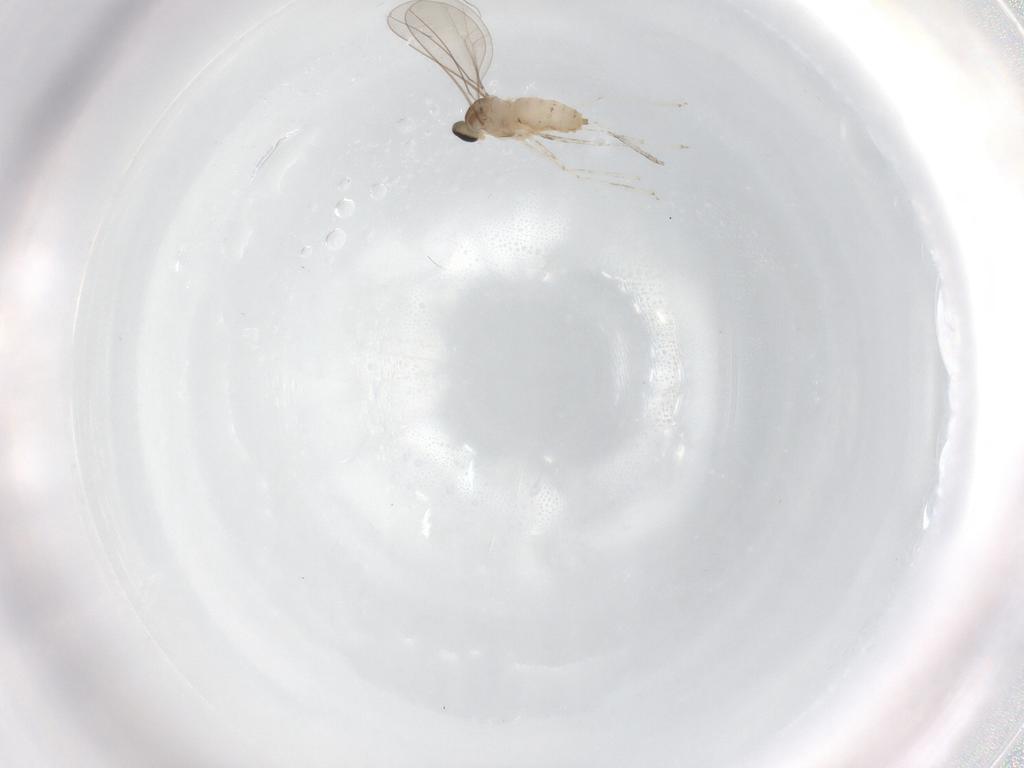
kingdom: Animalia
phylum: Arthropoda
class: Insecta
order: Diptera
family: Cecidomyiidae
